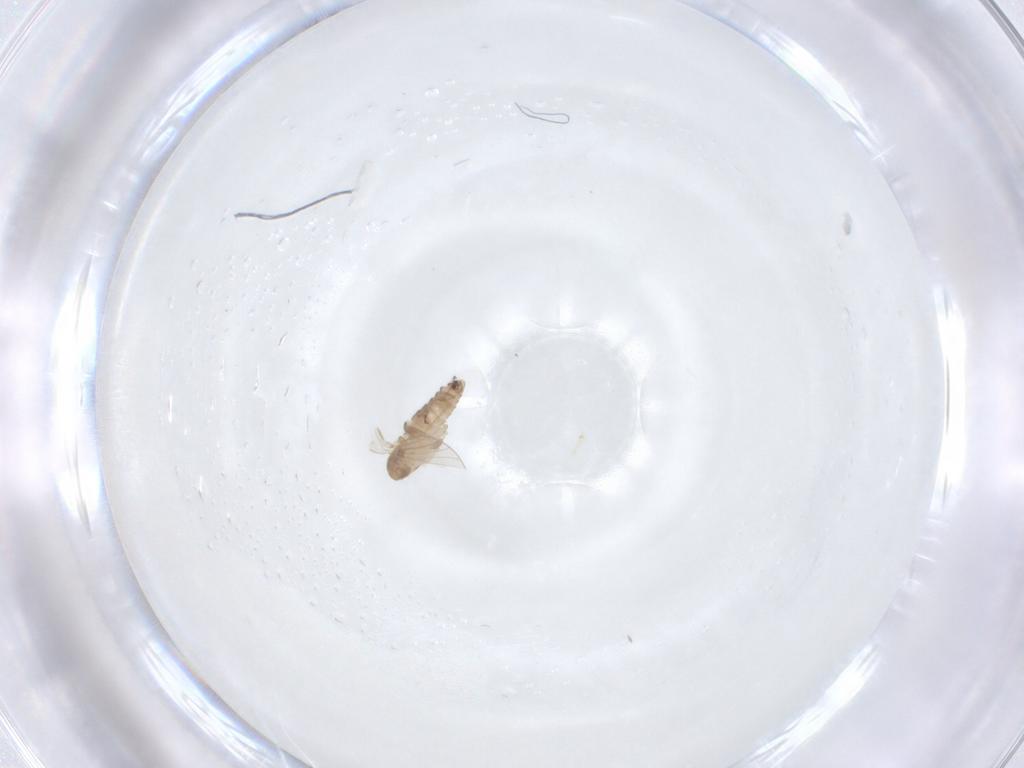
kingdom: Animalia
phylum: Arthropoda
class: Insecta
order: Diptera
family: Psychodidae
